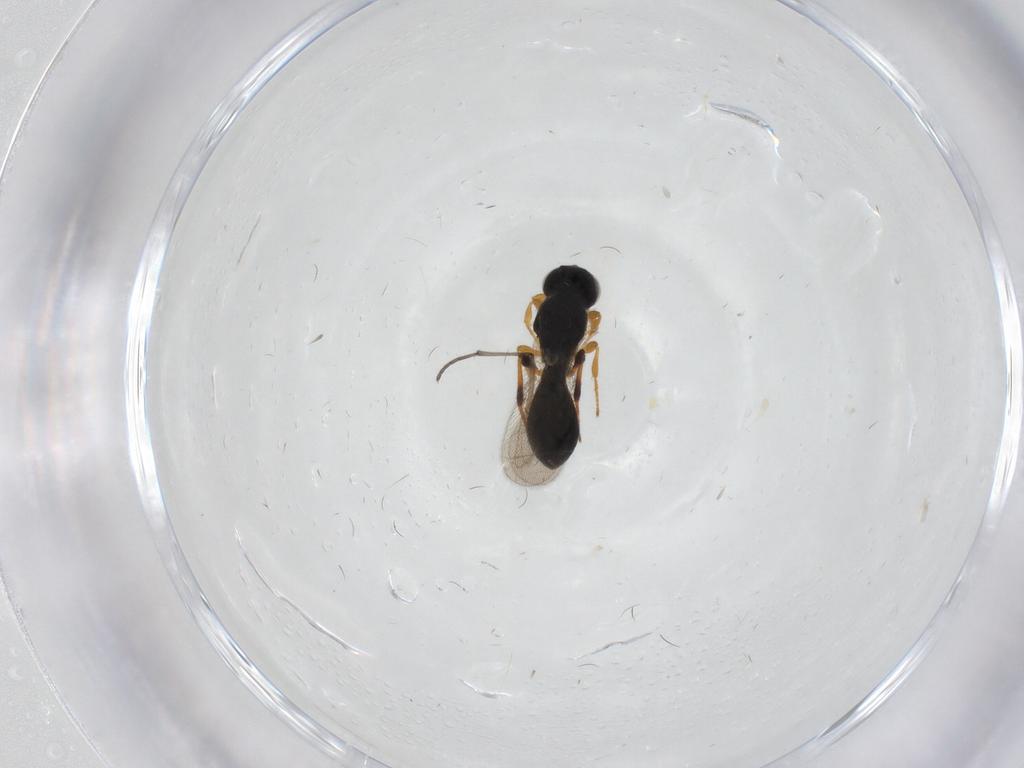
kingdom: Animalia
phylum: Arthropoda
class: Insecta
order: Hymenoptera
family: Platygastridae
